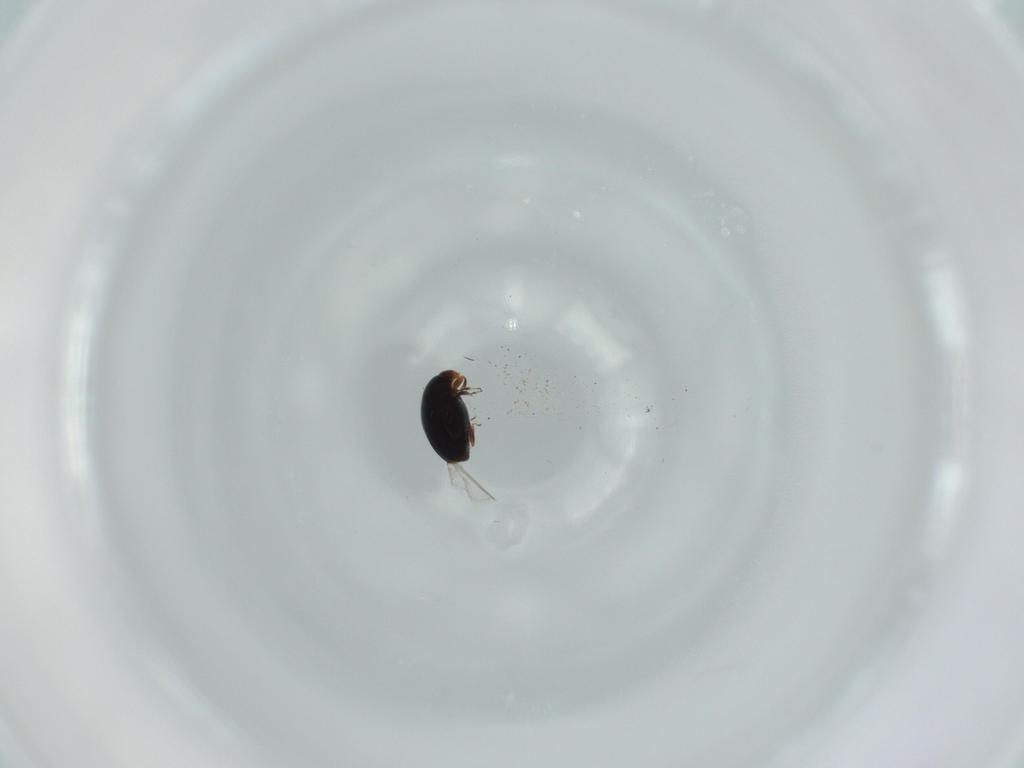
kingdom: Animalia
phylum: Arthropoda
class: Insecta
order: Coleoptera
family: Corylophidae
